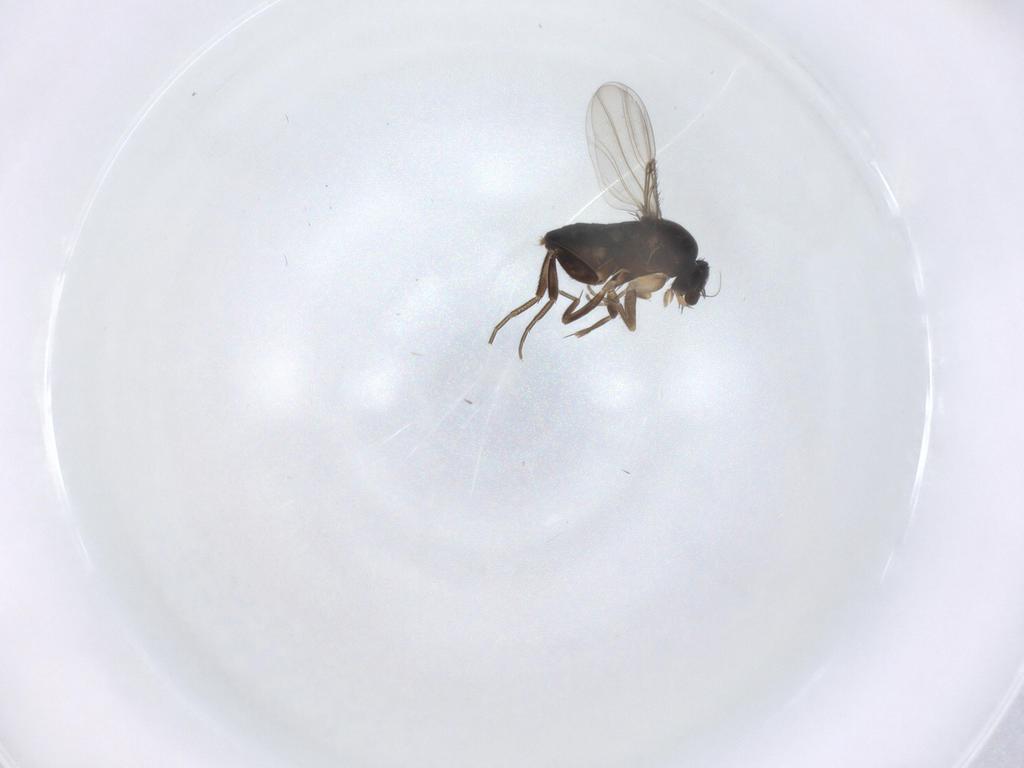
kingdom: Animalia
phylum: Arthropoda
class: Insecta
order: Diptera
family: Phoridae
